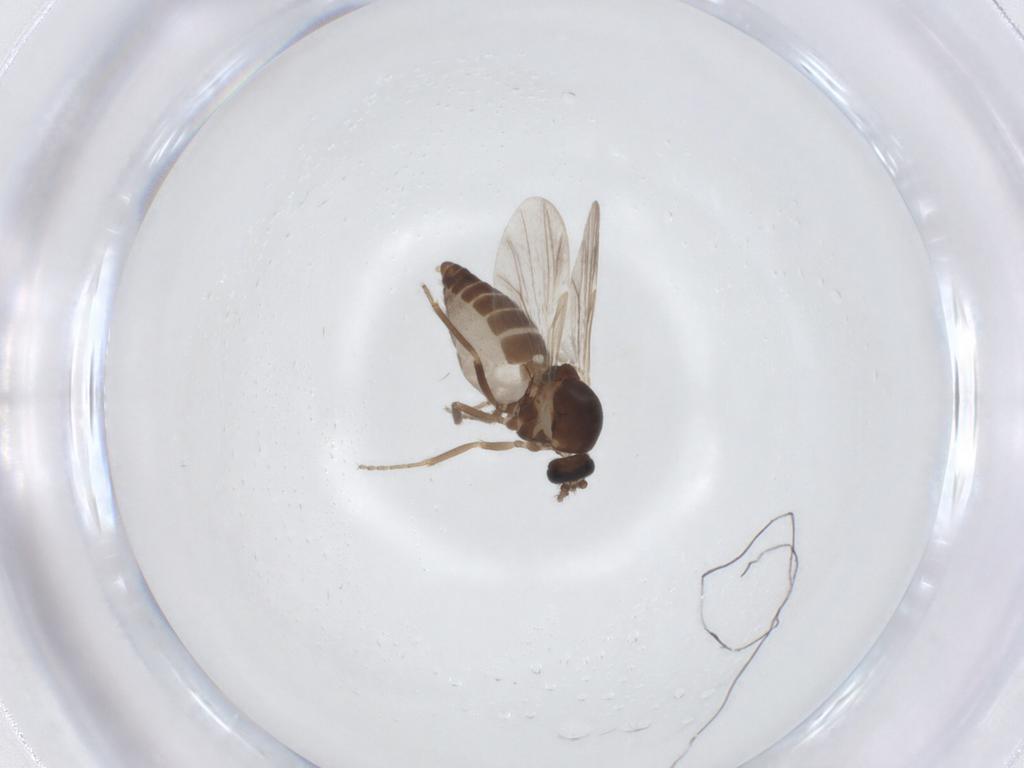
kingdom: Animalia
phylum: Arthropoda
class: Insecta
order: Diptera
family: Ceratopogonidae
